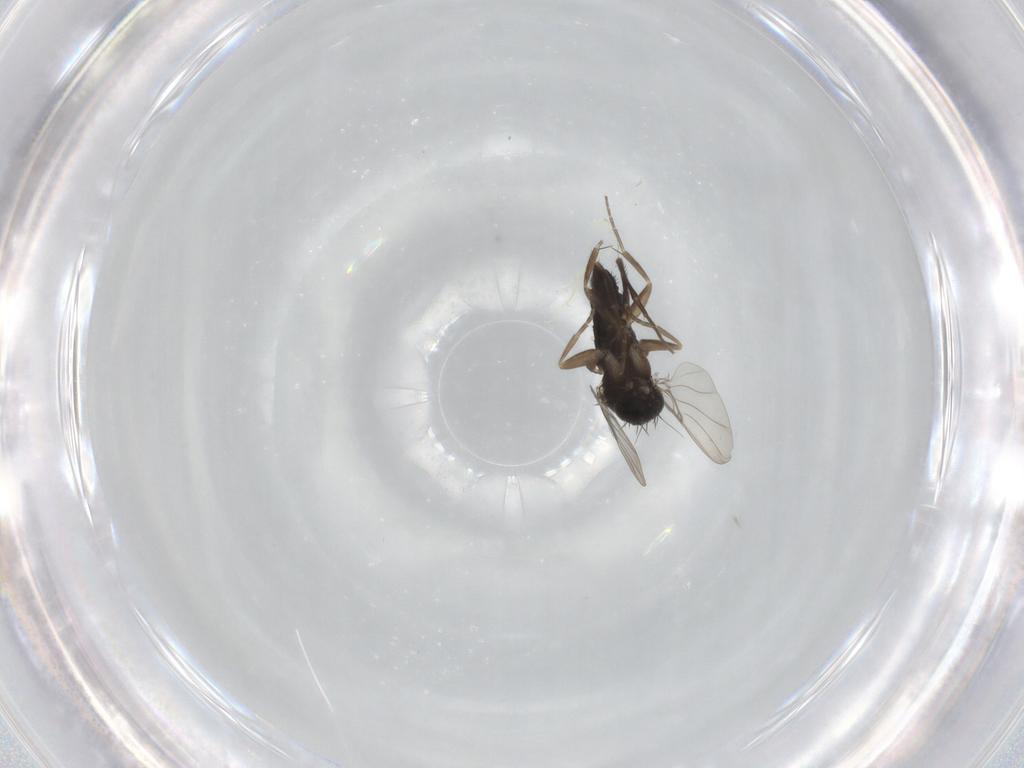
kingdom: Animalia
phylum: Arthropoda
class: Insecta
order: Diptera
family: Phoridae
